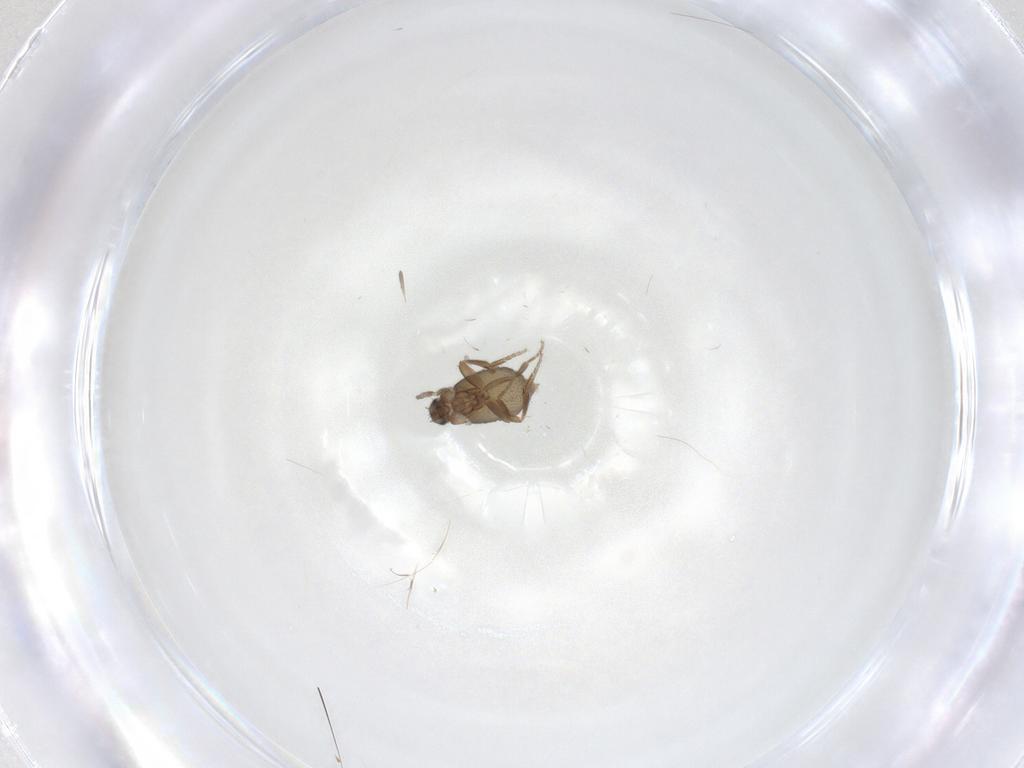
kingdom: Animalia
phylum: Arthropoda
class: Insecta
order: Diptera
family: Phoridae
